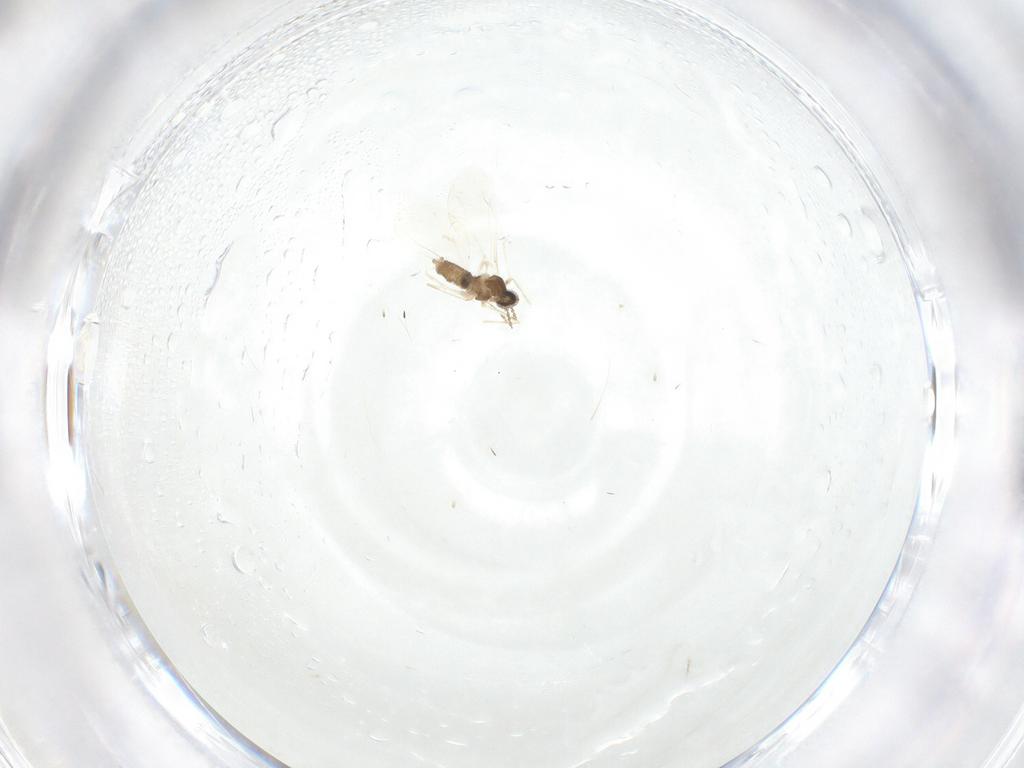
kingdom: Animalia
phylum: Arthropoda
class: Insecta
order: Diptera
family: Cecidomyiidae
